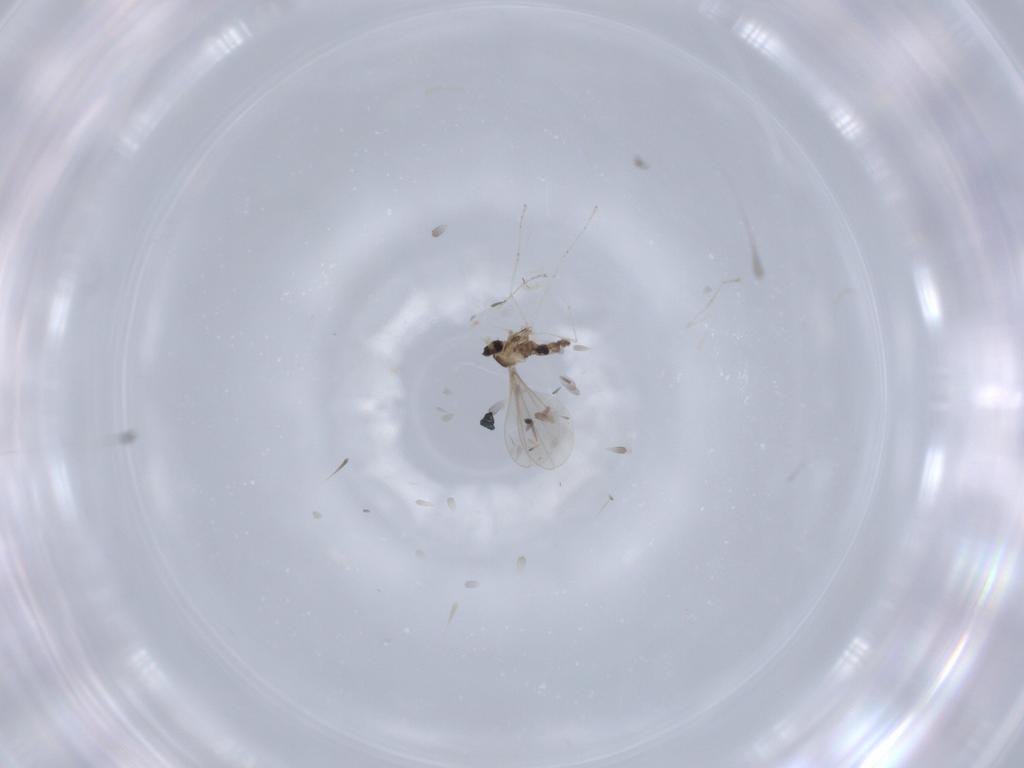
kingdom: Animalia
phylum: Arthropoda
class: Insecta
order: Diptera
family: Cecidomyiidae
